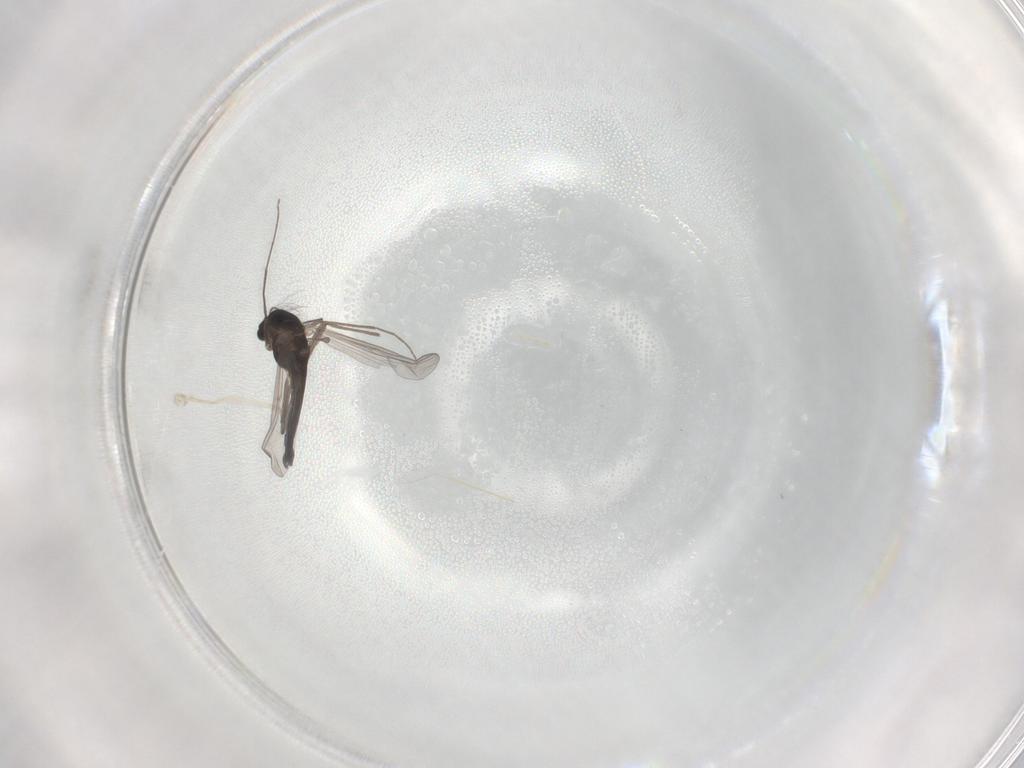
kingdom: Animalia
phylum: Arthropoda
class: Insecta
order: Diptera
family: Chironomidae
